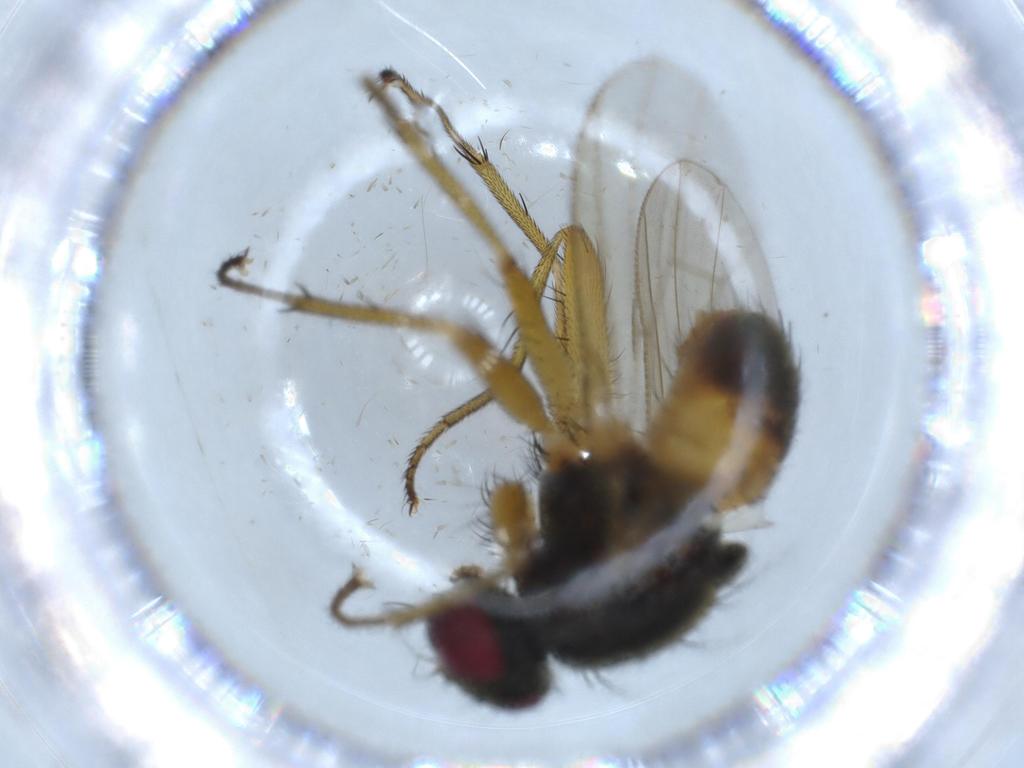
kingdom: Animalia
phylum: Arthropoda
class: Insecta
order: Diptera
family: Muscidae
